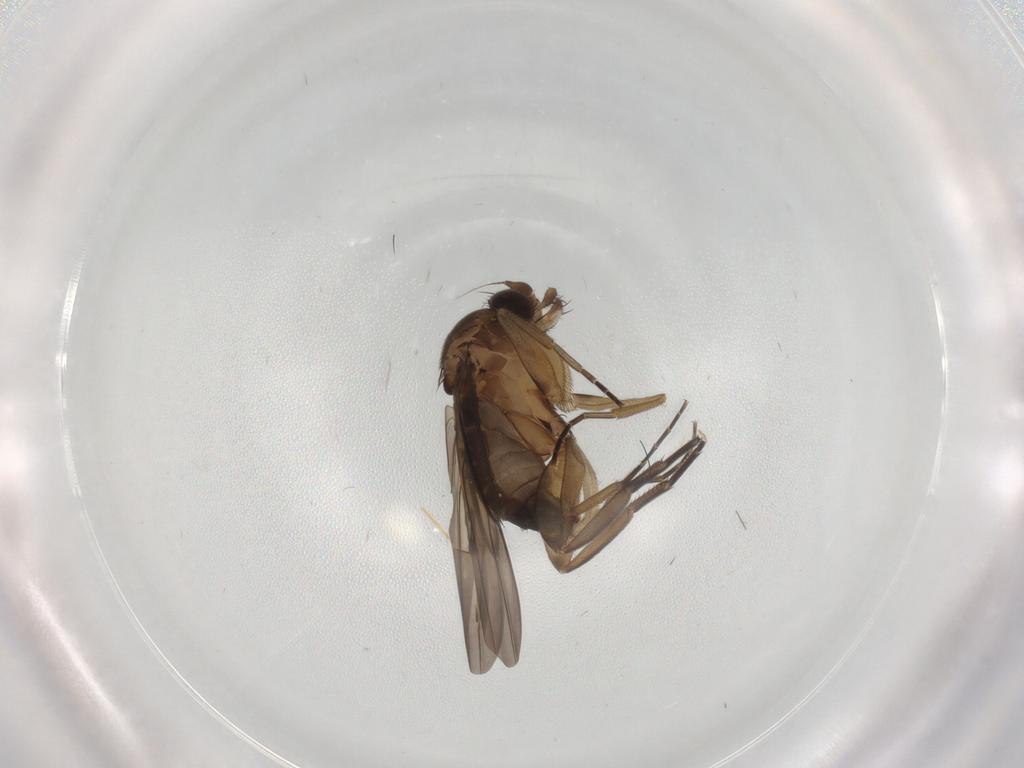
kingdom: Animalia
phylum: Arthropoda
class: Insecta
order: Diptera
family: Phoridae
